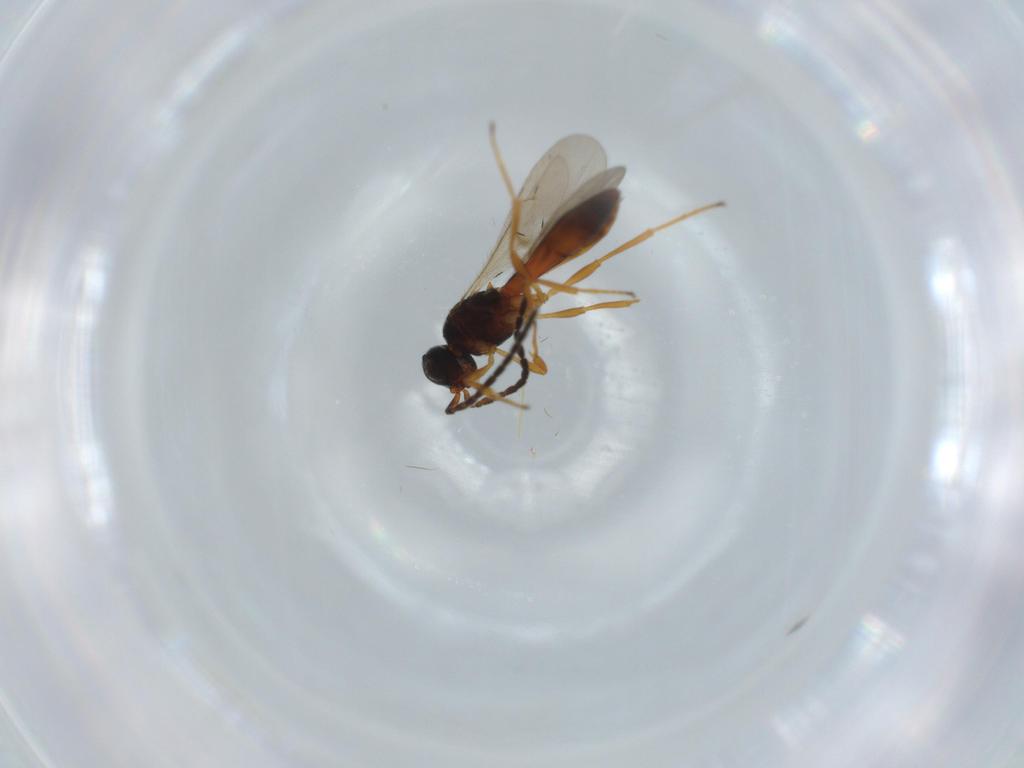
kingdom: Animalia
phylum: Arthropoda
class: Insecta
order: Hymenoptera
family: Scelionidae
